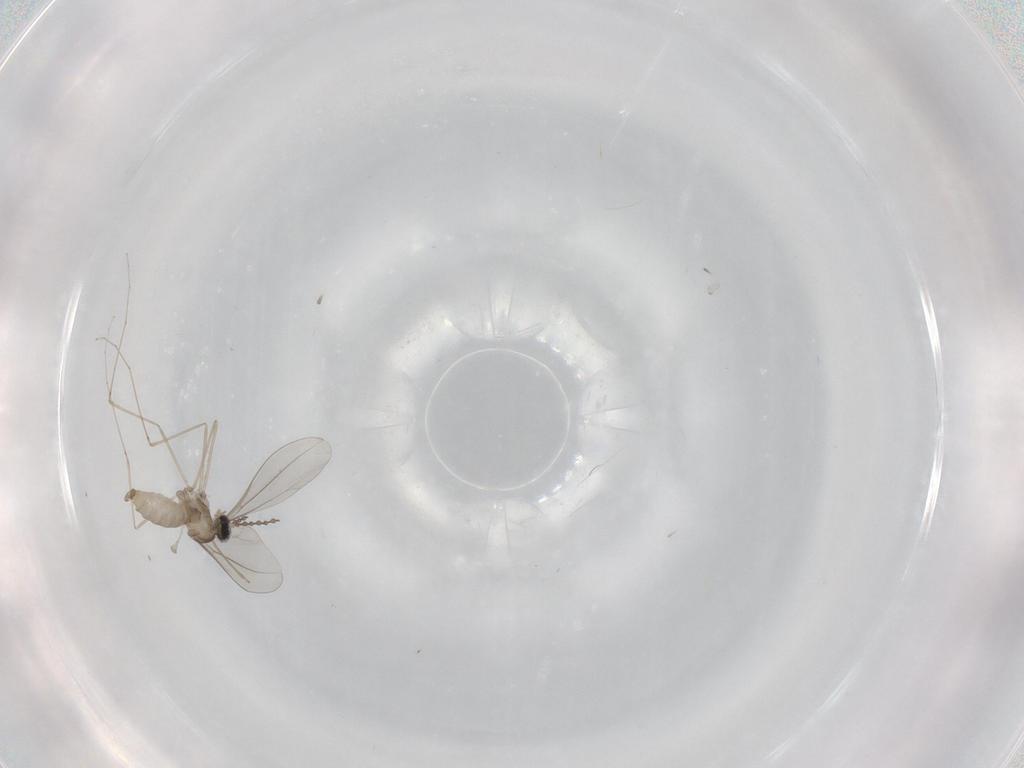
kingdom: Animalia
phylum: Arthropoda
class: Insecta
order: Diptera
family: Cecidomyiidae
